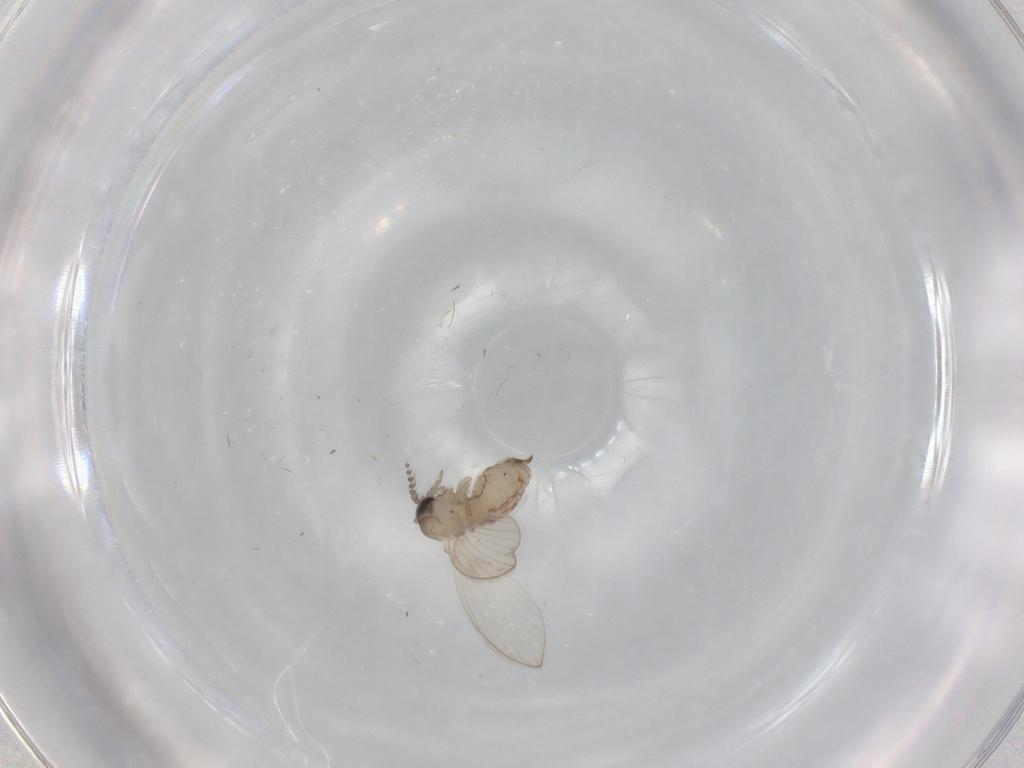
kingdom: Animalia
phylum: Arthropoda
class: Insecta
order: Diptera
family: Psychodidae
